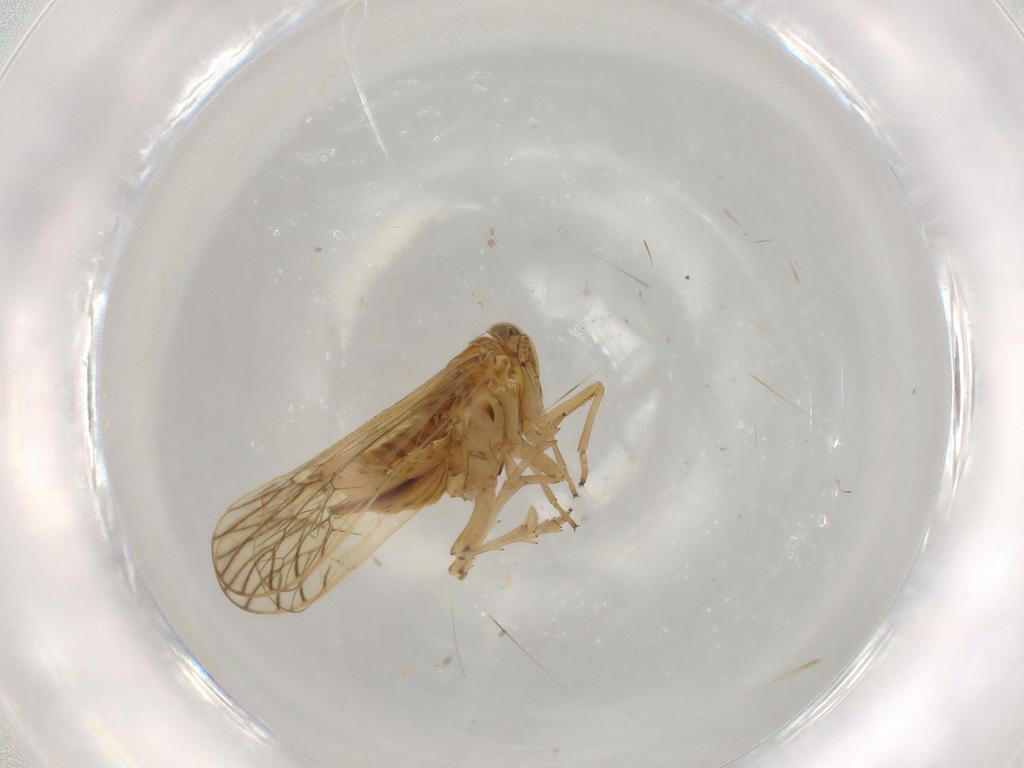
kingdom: Animalia
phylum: Arthropoda
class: Insecta
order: Hemiptera
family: Delphacidae
